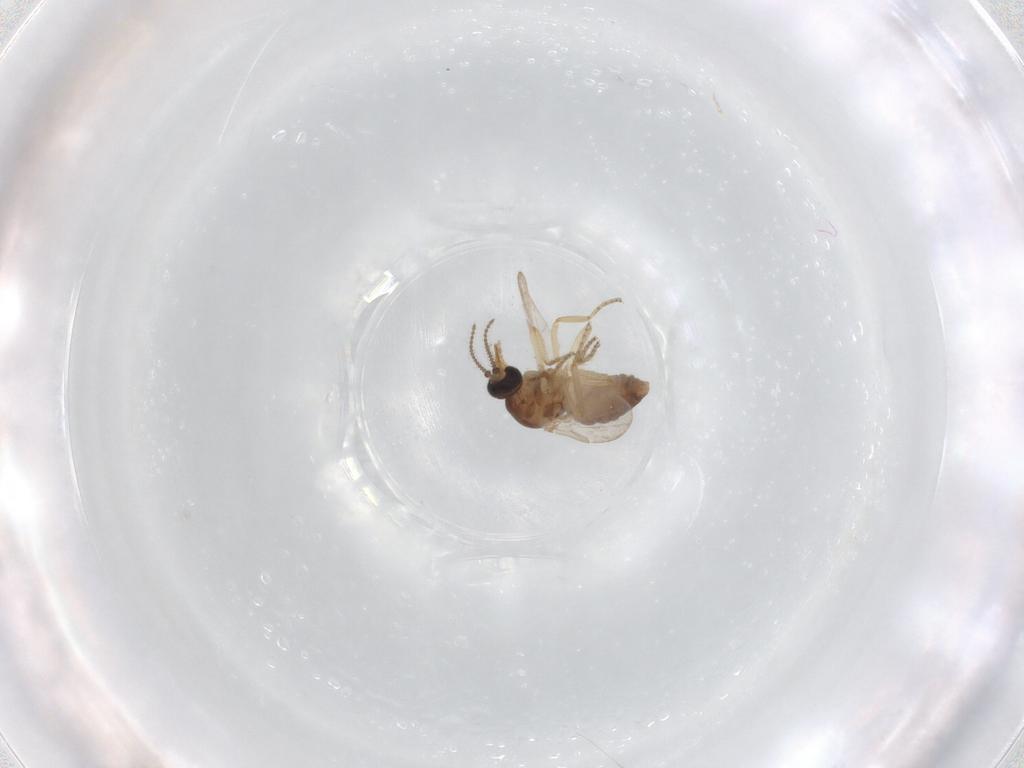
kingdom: Animalia
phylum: Arthropoda
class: Insecta
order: Diptera
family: Ceratopogonidae
